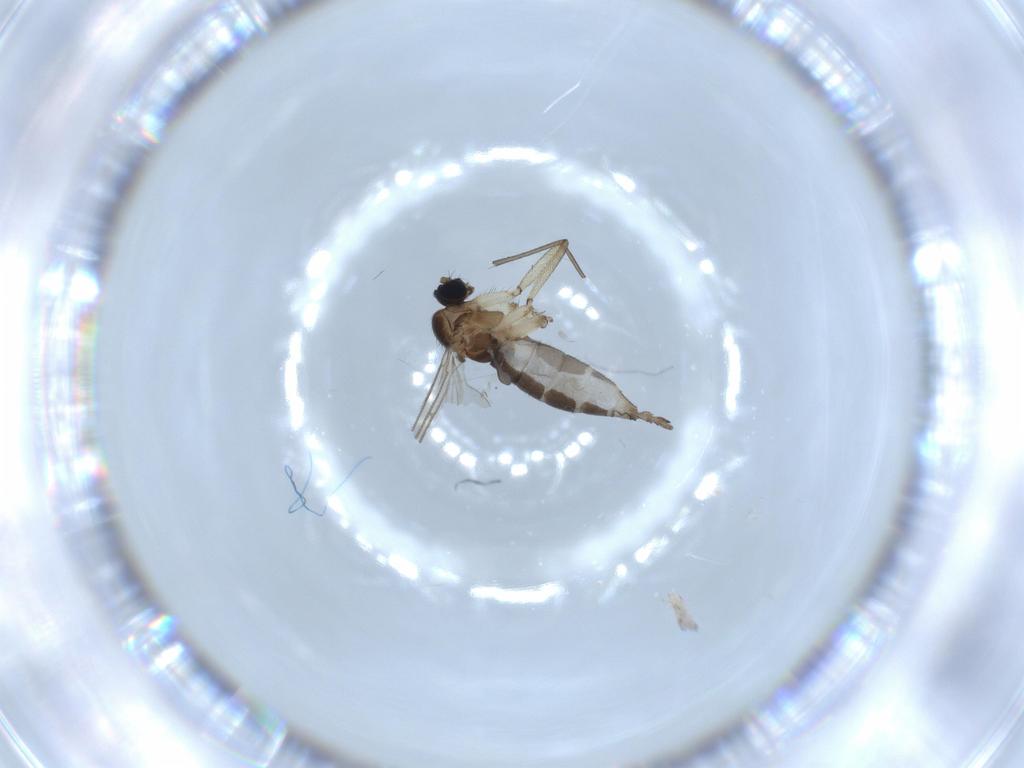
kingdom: Animalia
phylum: Arthropoda
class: Insecta
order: Diptera
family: Sciaridae
